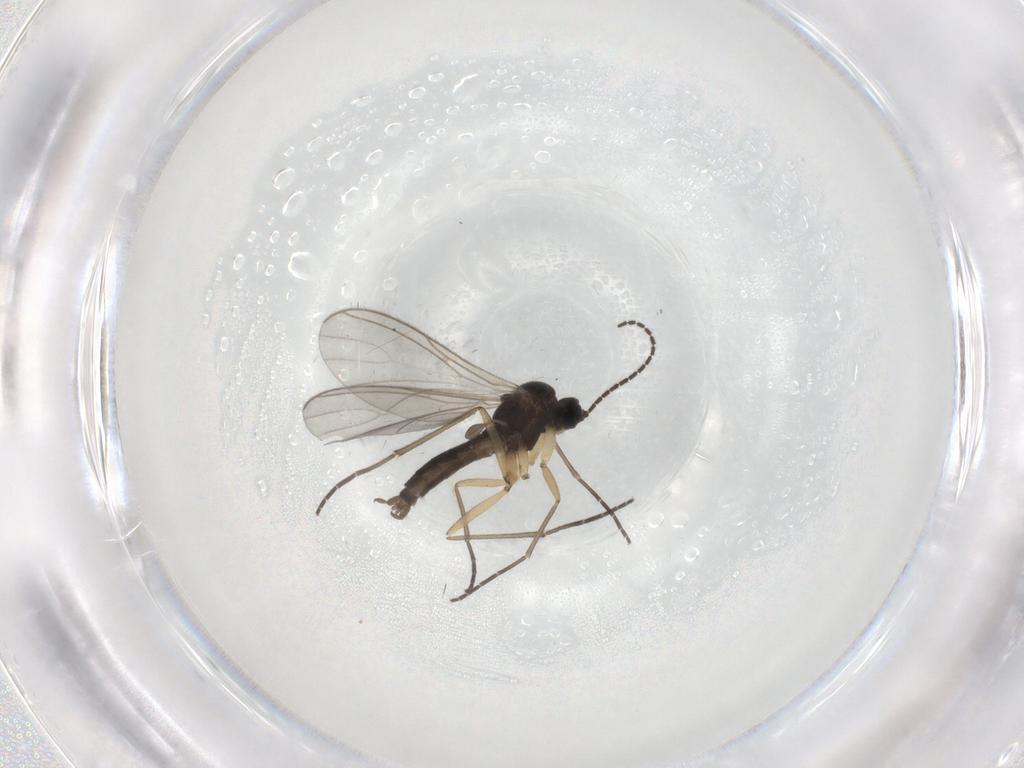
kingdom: Animalia
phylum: Arthropoda
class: Insecta
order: Diptera
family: Sciaridae
